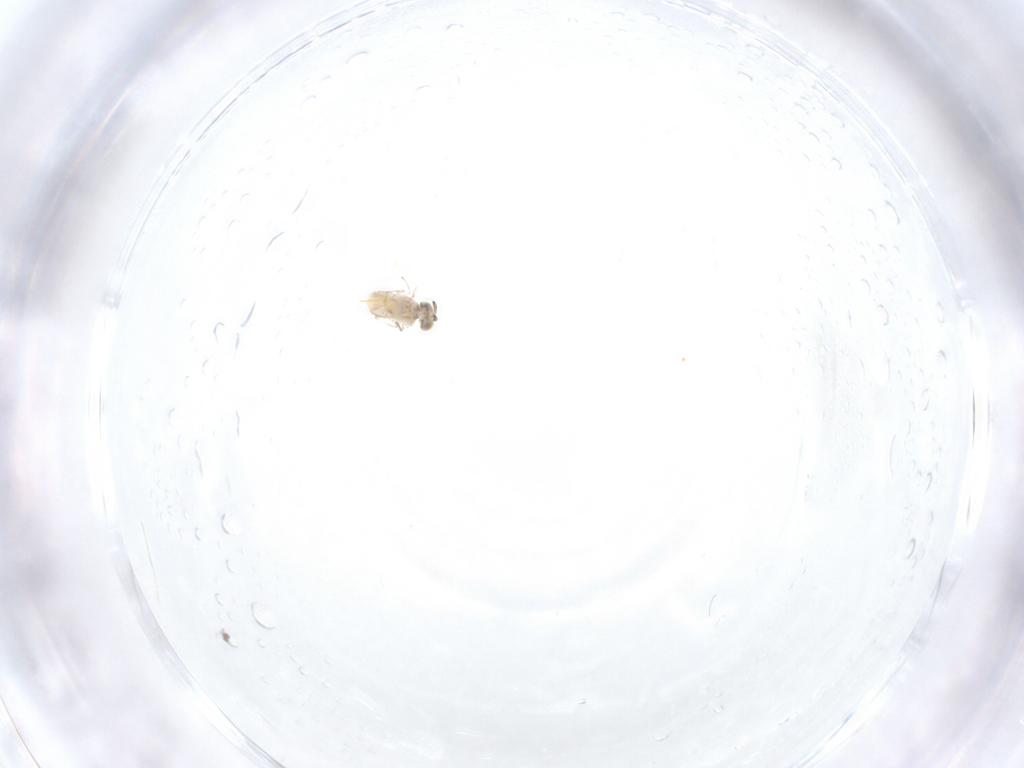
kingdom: Animalia
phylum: Arthropoda
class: Insecta
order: Hymenoptera
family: Aphelinidae
